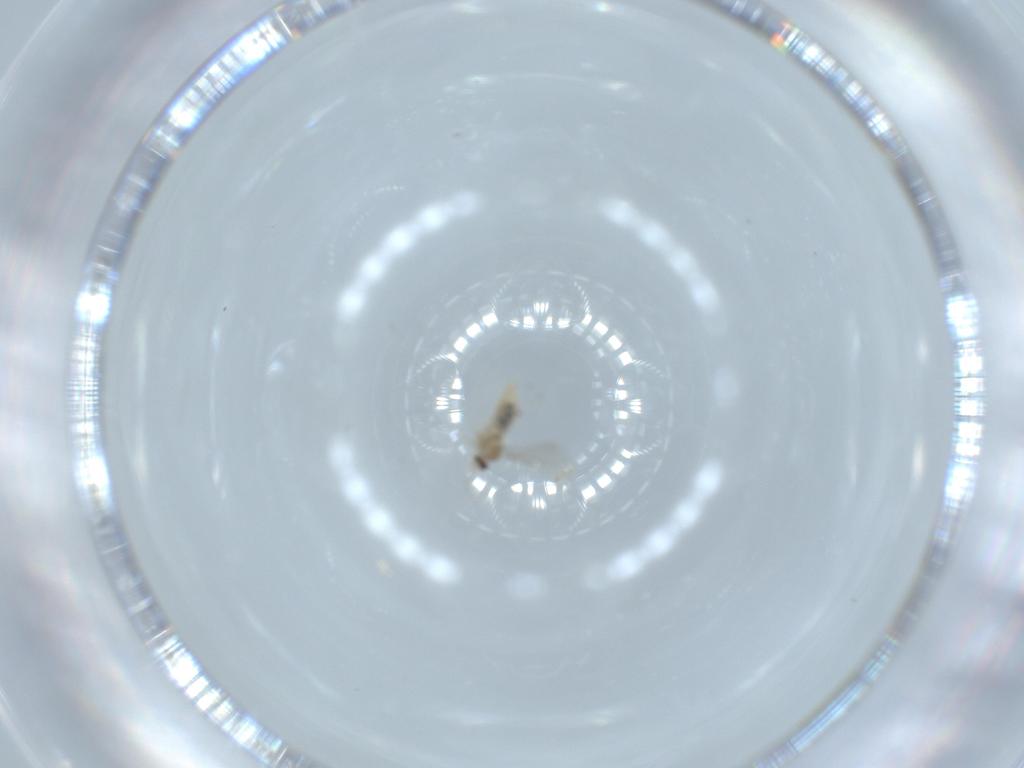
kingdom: Animalia
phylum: Arthropoda
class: Insecta
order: Diptera
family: Cecidomyiidae
